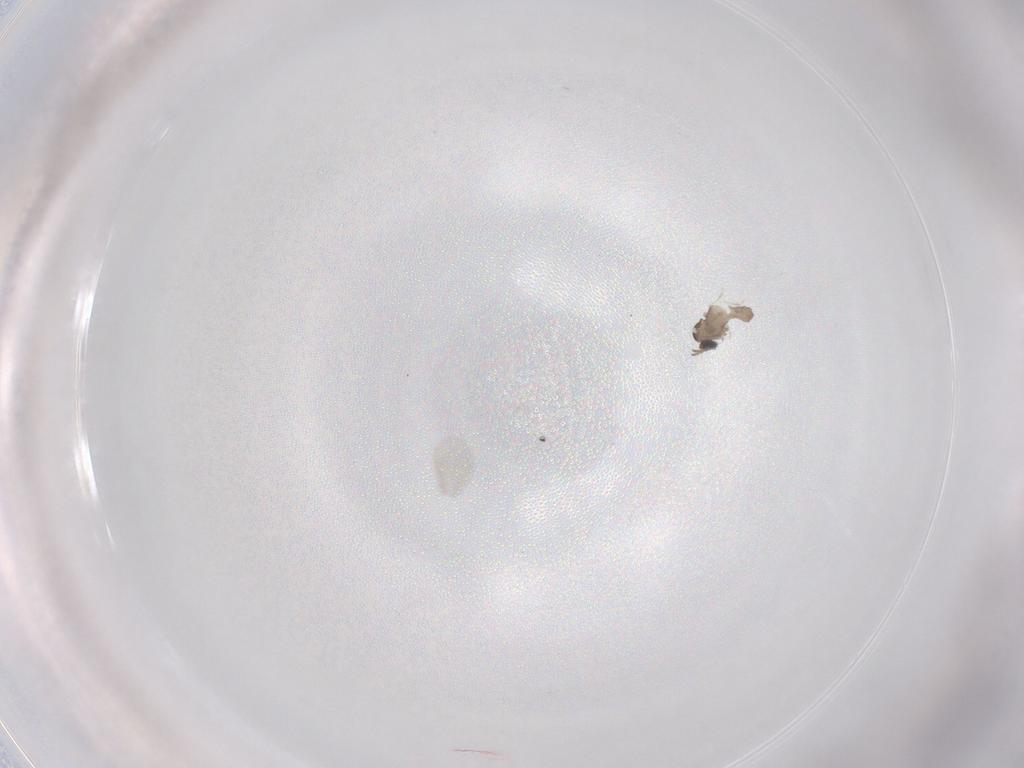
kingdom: Animalia
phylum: Arthropoda
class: Insecta
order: Diptera
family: Cecidomyiidae
